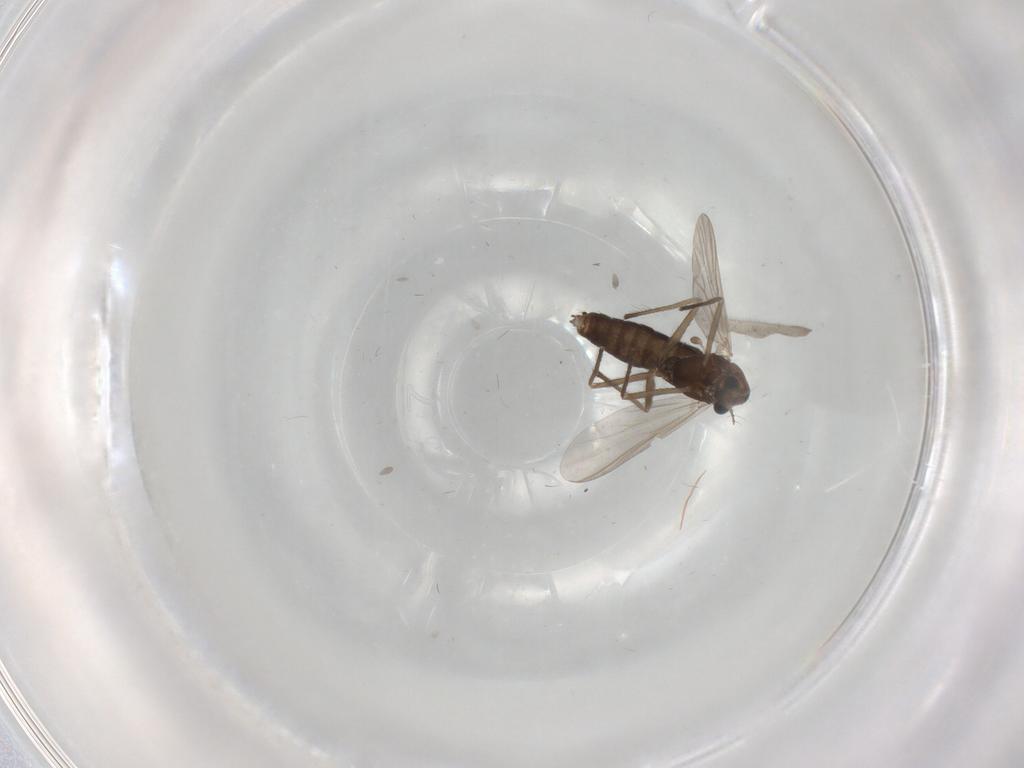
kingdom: Animalia
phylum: Arthropoda
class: Insecta
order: Diptera
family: Chironomidae
